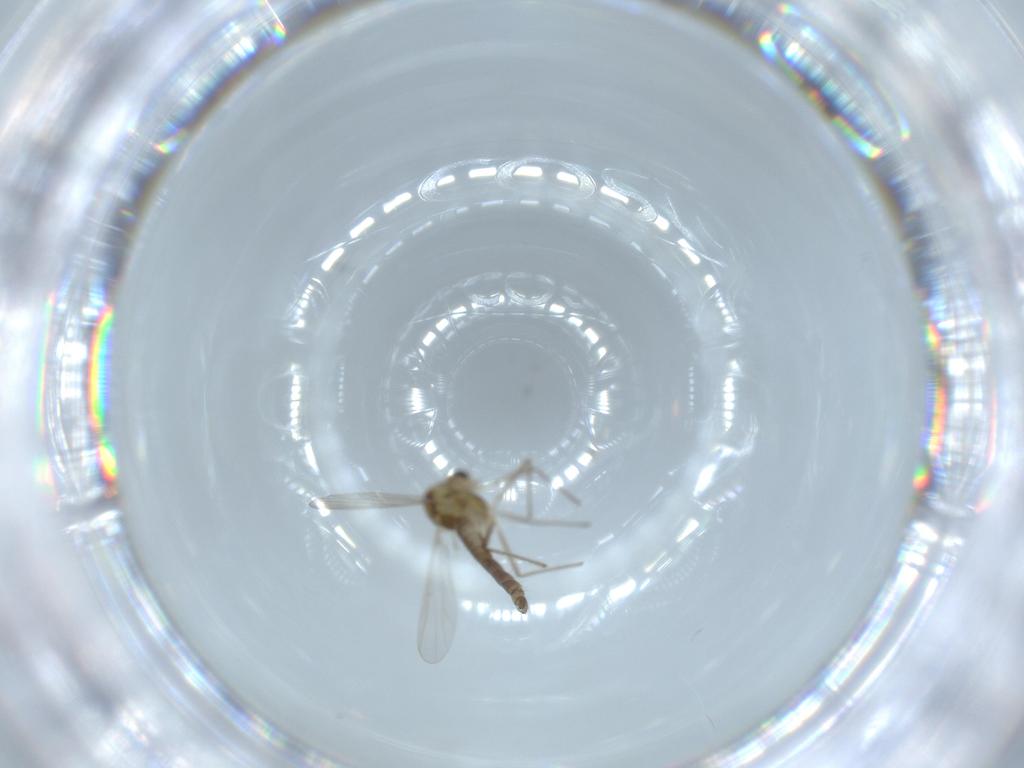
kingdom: Animalia
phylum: Arthropoda
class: Insecta
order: Diptera
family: Chironomidae
